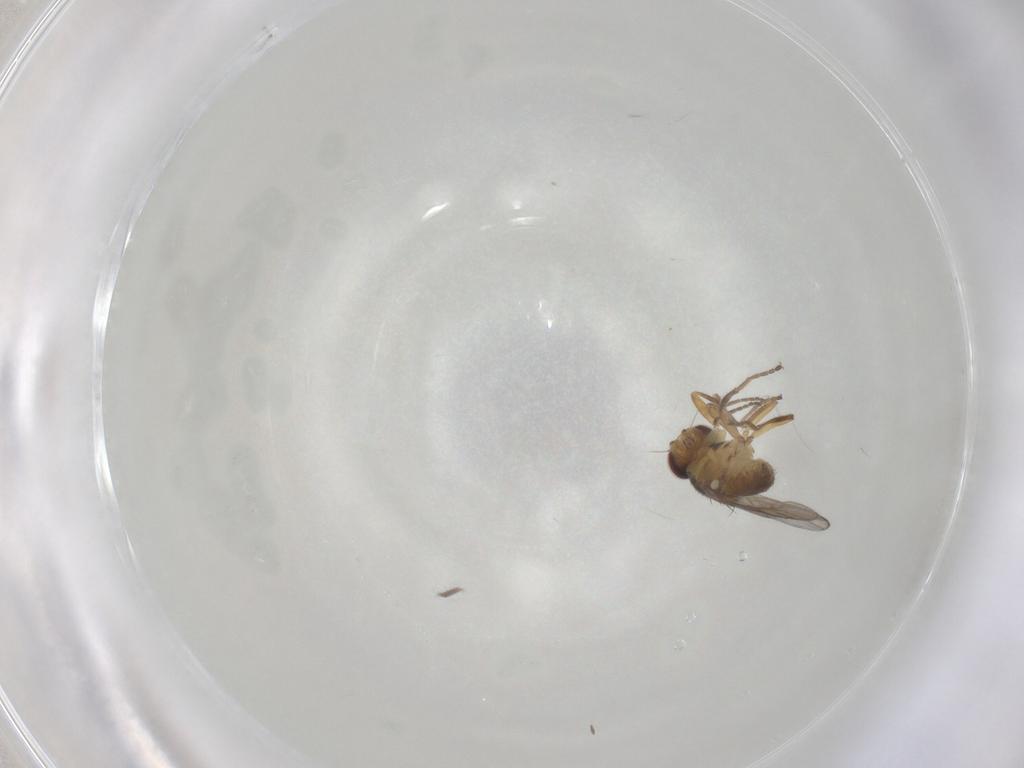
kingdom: Animalia
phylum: Arthropoda
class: Insecta
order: Diptera
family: Chloropidae
